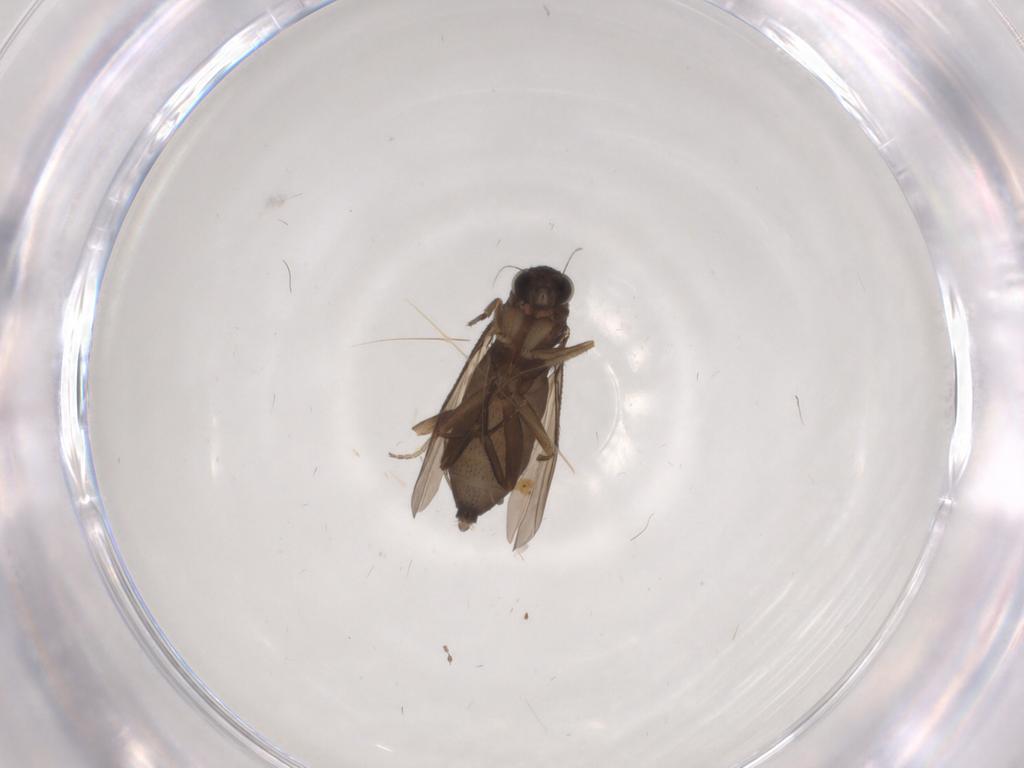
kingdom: Animalia
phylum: Arthropoda
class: Insecta
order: Diptera
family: Phoridae
